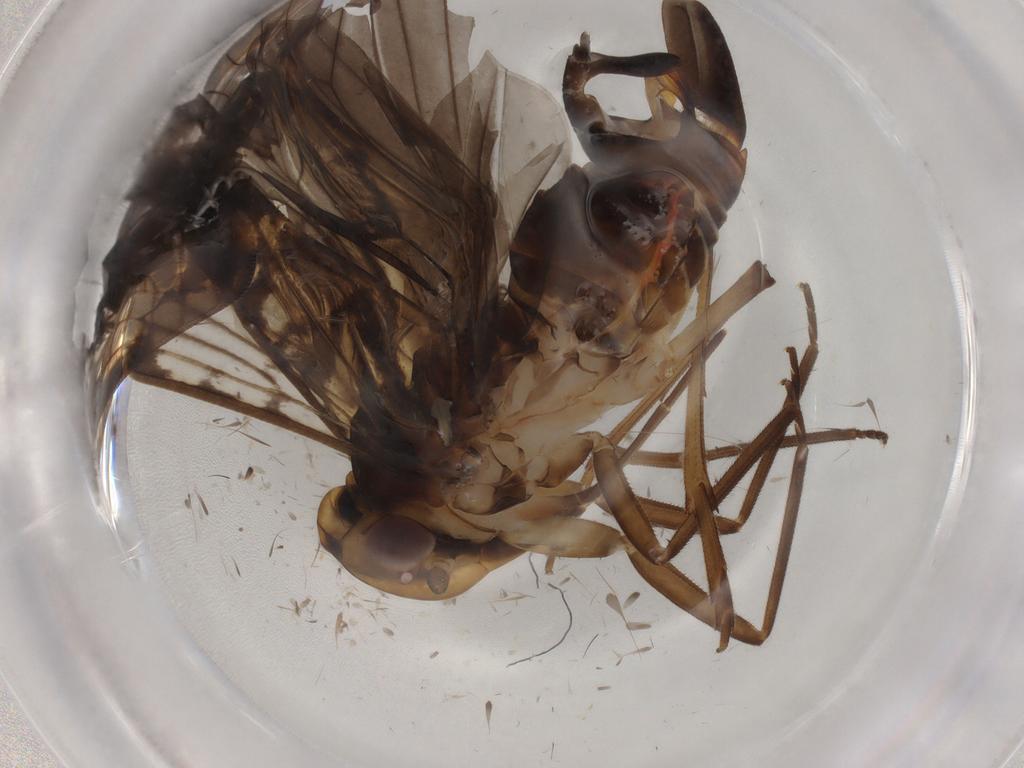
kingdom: Animalia
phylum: Arthropoda
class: Insecta
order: Hemiptera
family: Cixiidae
